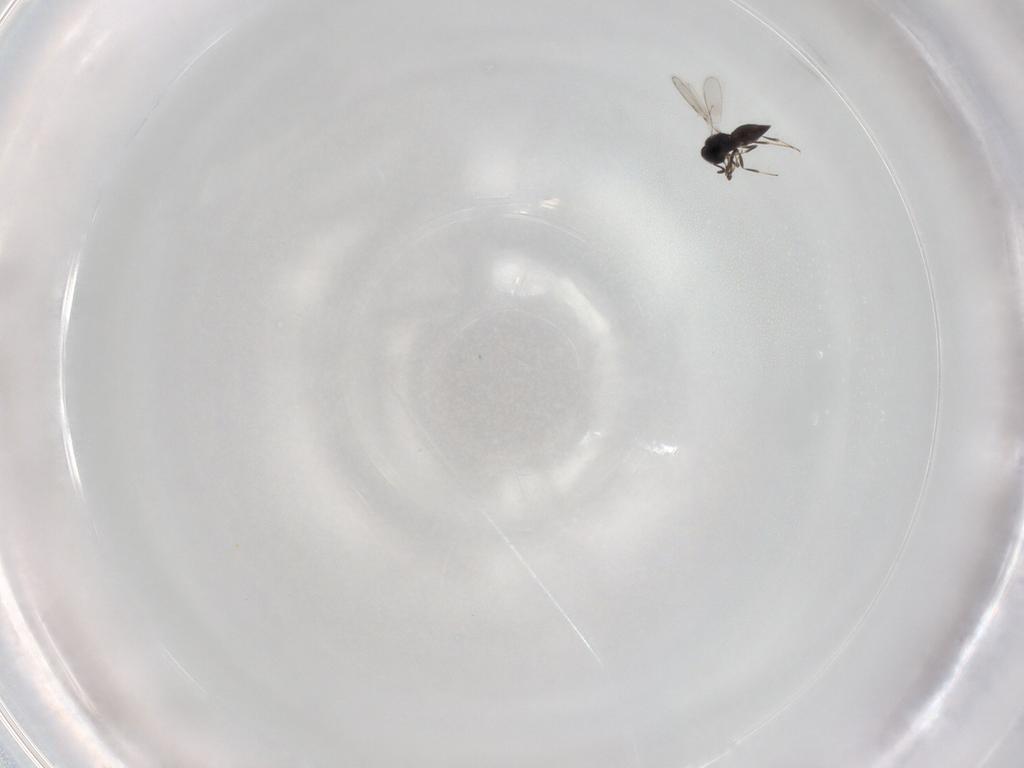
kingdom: Animalia
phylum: Arthropoda
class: Insecta
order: Hymenoptera
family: Scelionidae
